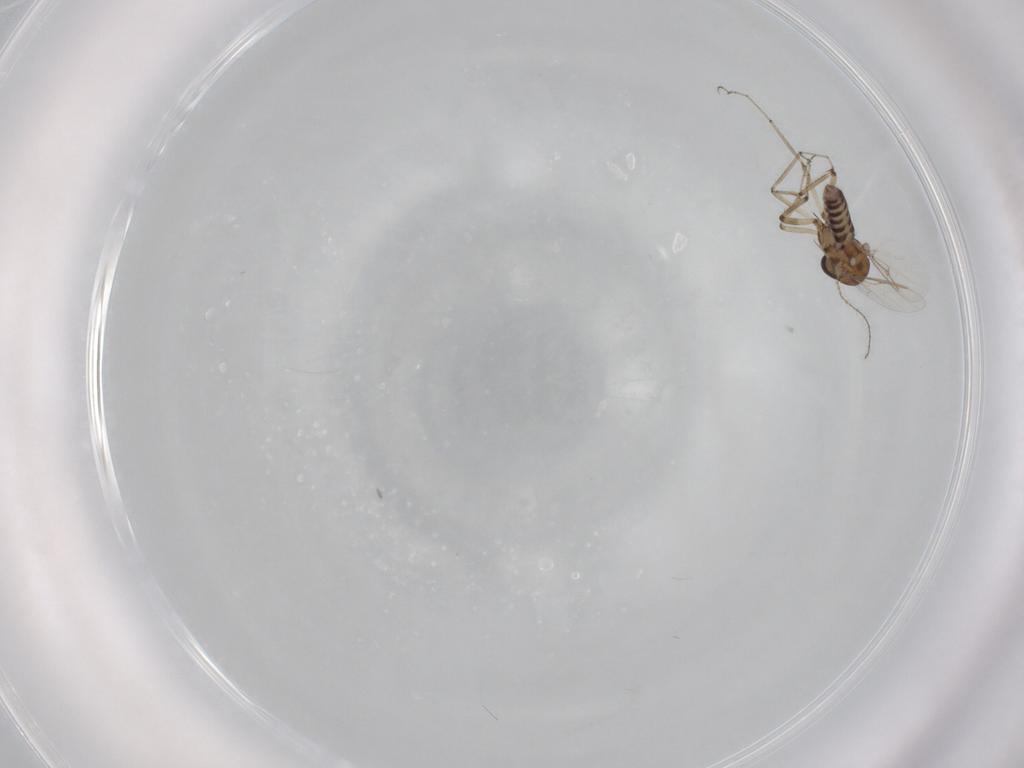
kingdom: Animalia
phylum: Arthropoda
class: Insecta
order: Diptera
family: Ceratopogonidae
